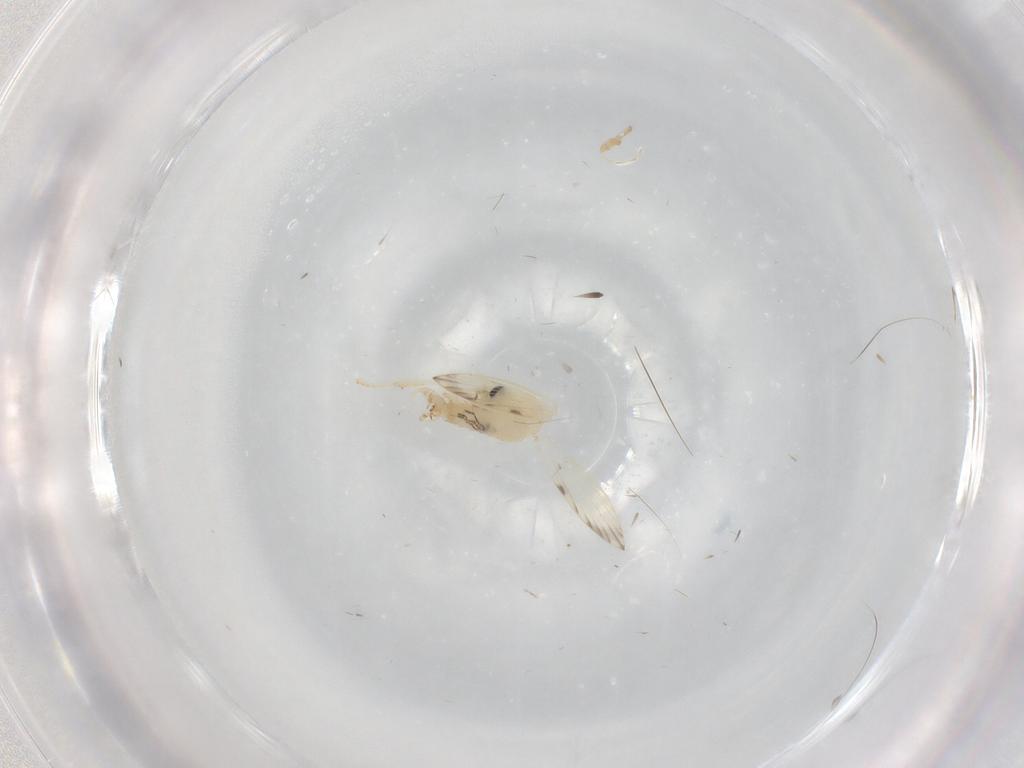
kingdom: Animalia
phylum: Arthropoda
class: Insecta
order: Diptera
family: Psychodidae
